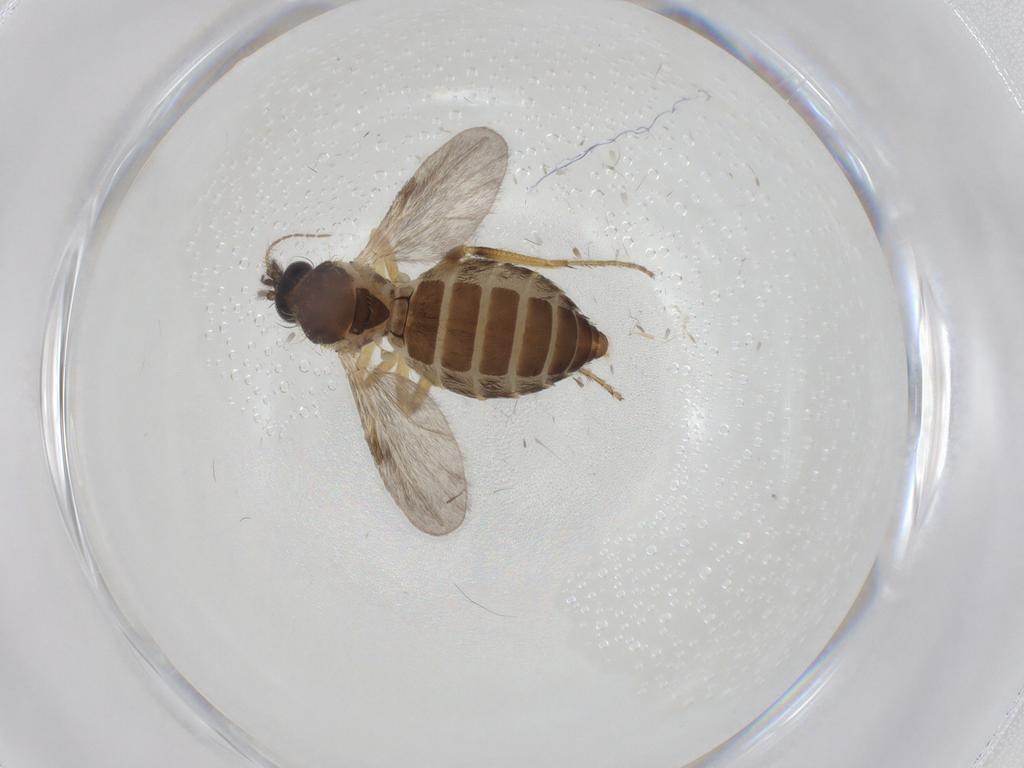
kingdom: Animalia
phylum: Arthropoda
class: Insecta
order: Diptera
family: Ceratopogonidae
